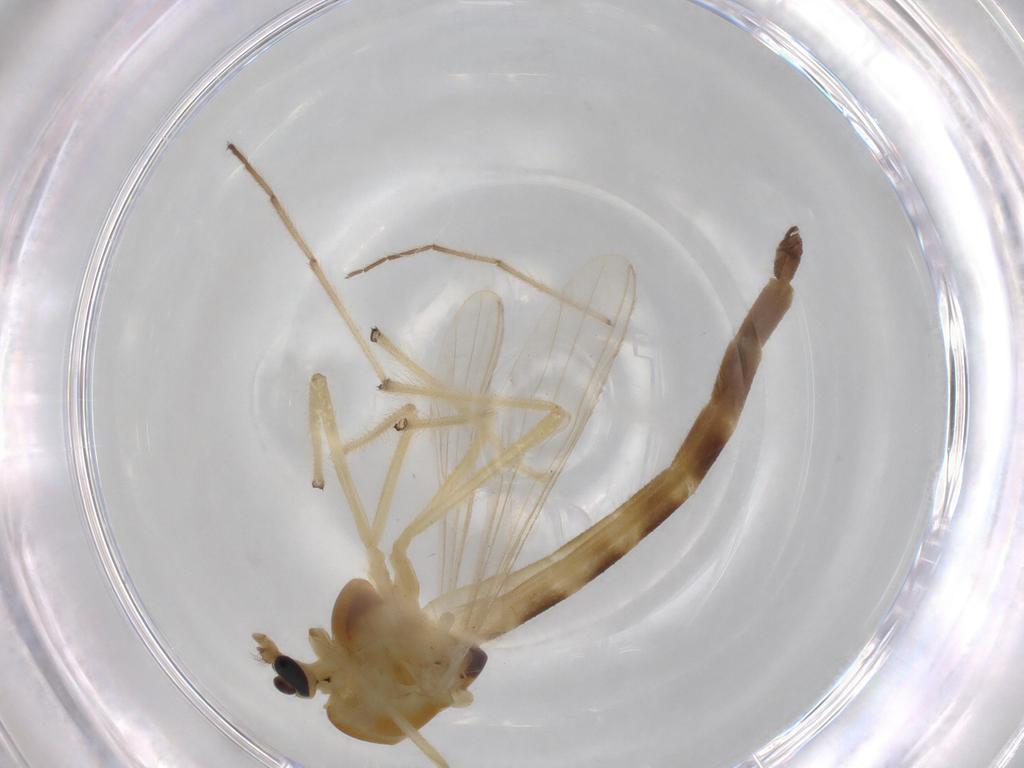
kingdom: Animalia
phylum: Arthropoda
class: Insecta
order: Diptera
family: Chironomidae
